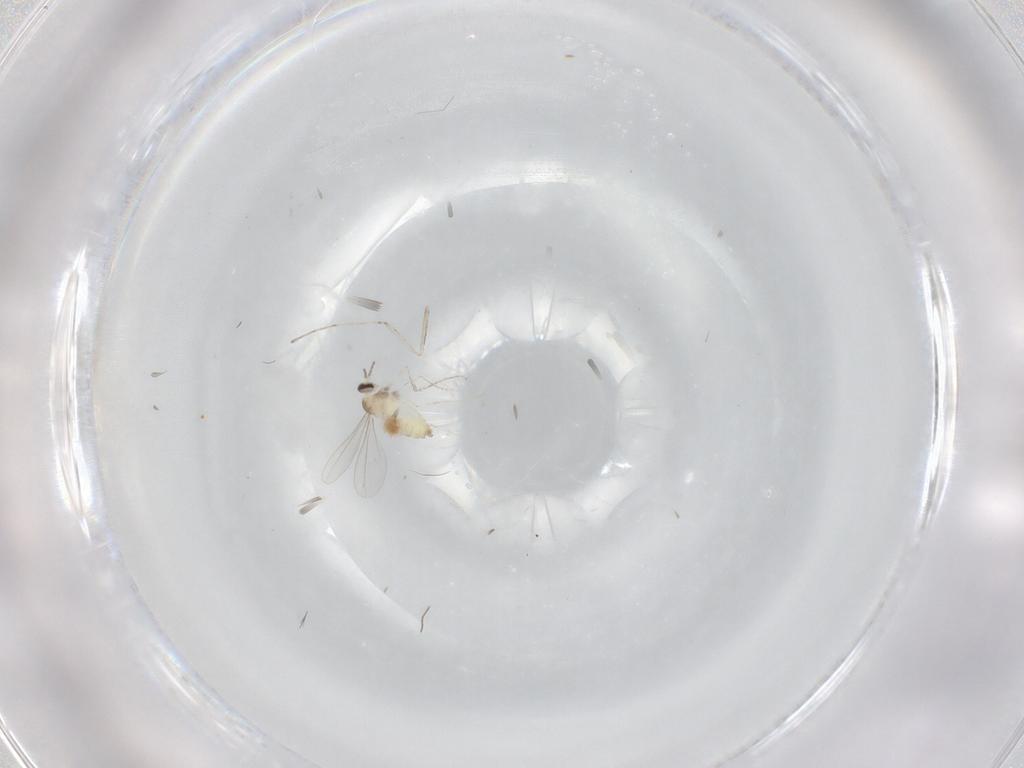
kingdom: Animalia
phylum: Arthropoda
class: Insecta
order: Diptera
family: Cecidomyiidae
